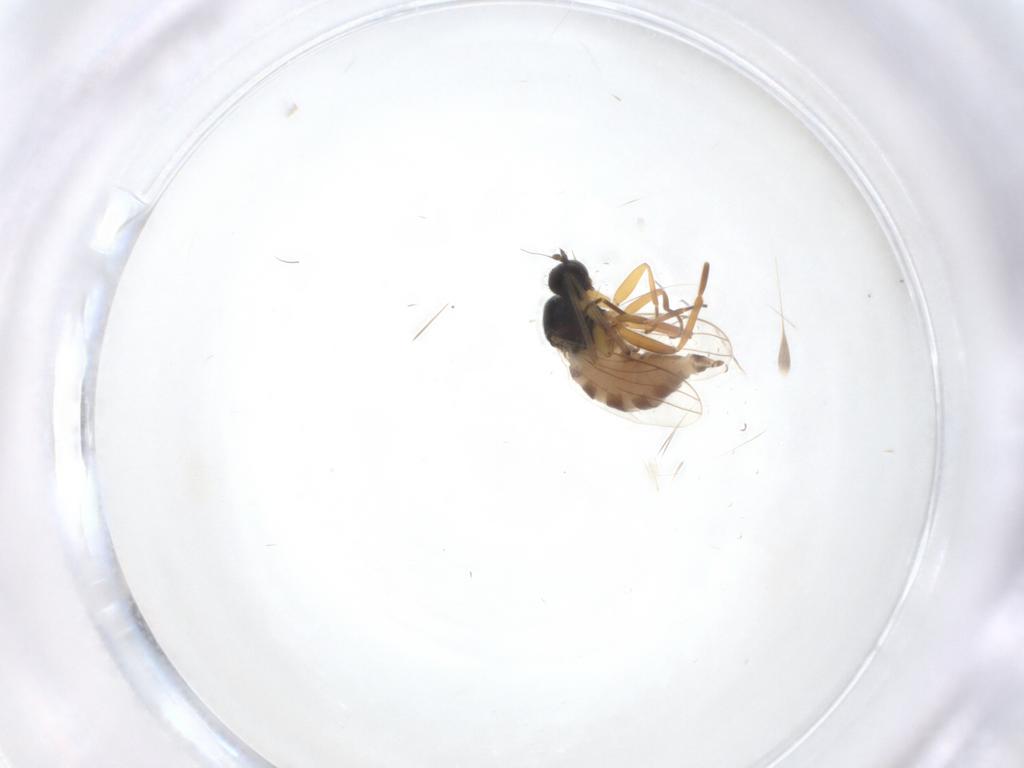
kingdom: Animalia
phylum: Arthropoda
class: Insecta
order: Diptera
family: Hybotidae
